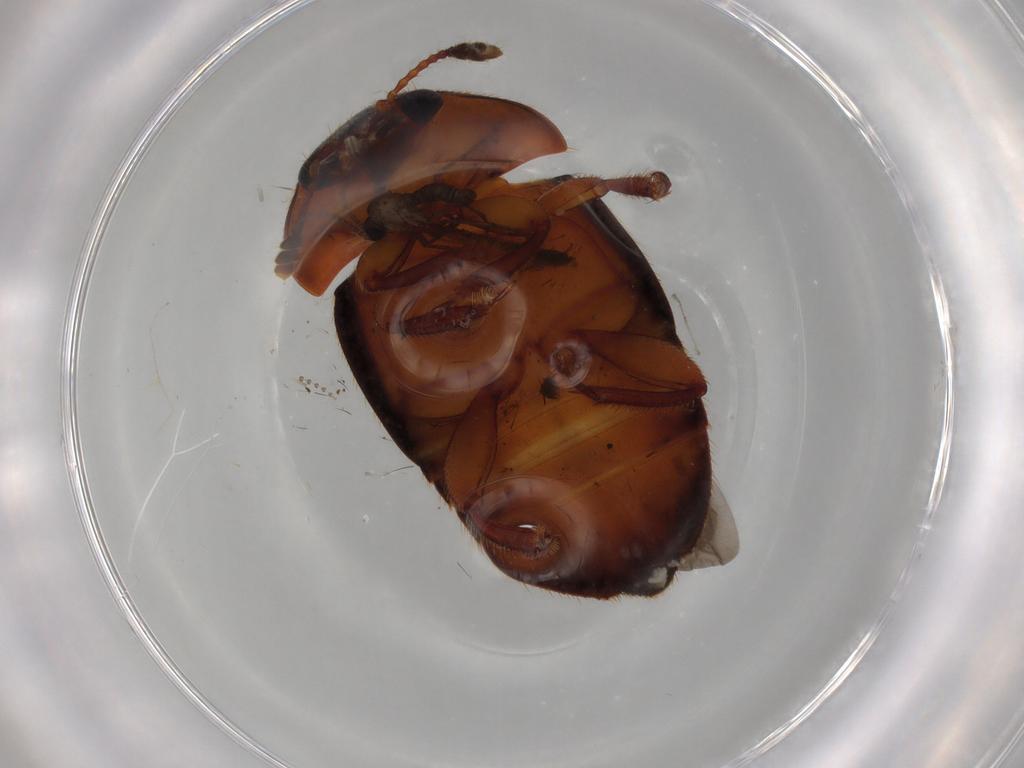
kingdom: Animalia
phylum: Arthropoda
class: Insecta
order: Coleoptera
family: Nitidulidae
